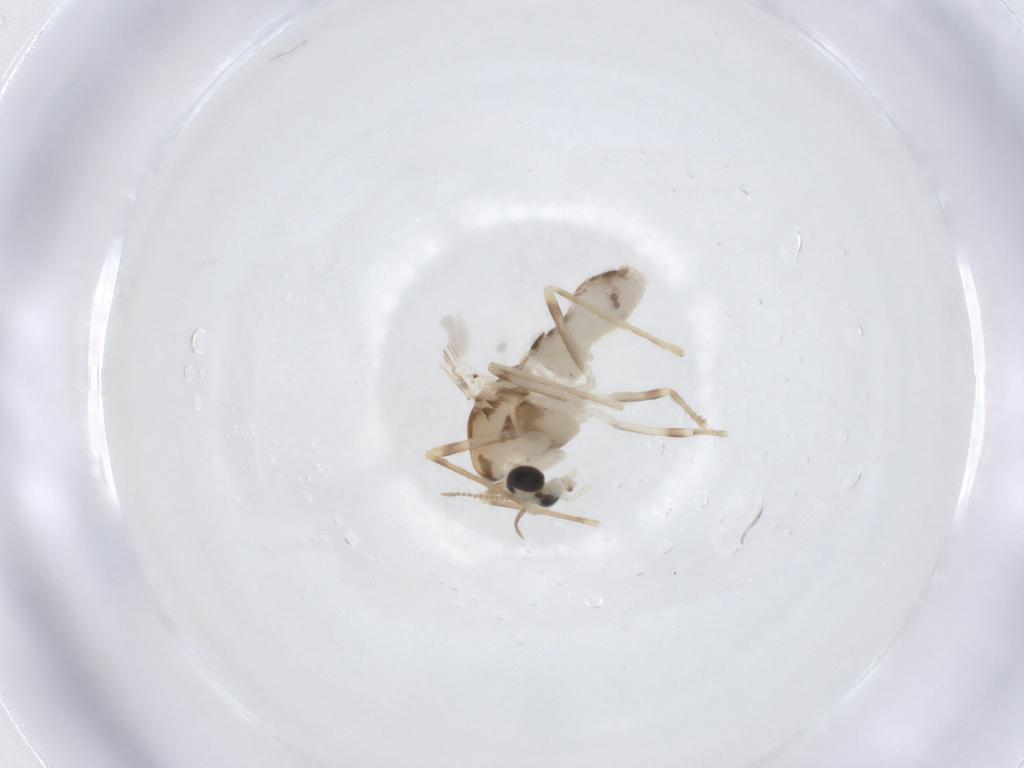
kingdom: Animalia
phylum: Arthropoda
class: Insecta
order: Diptera
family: Chironomidae
